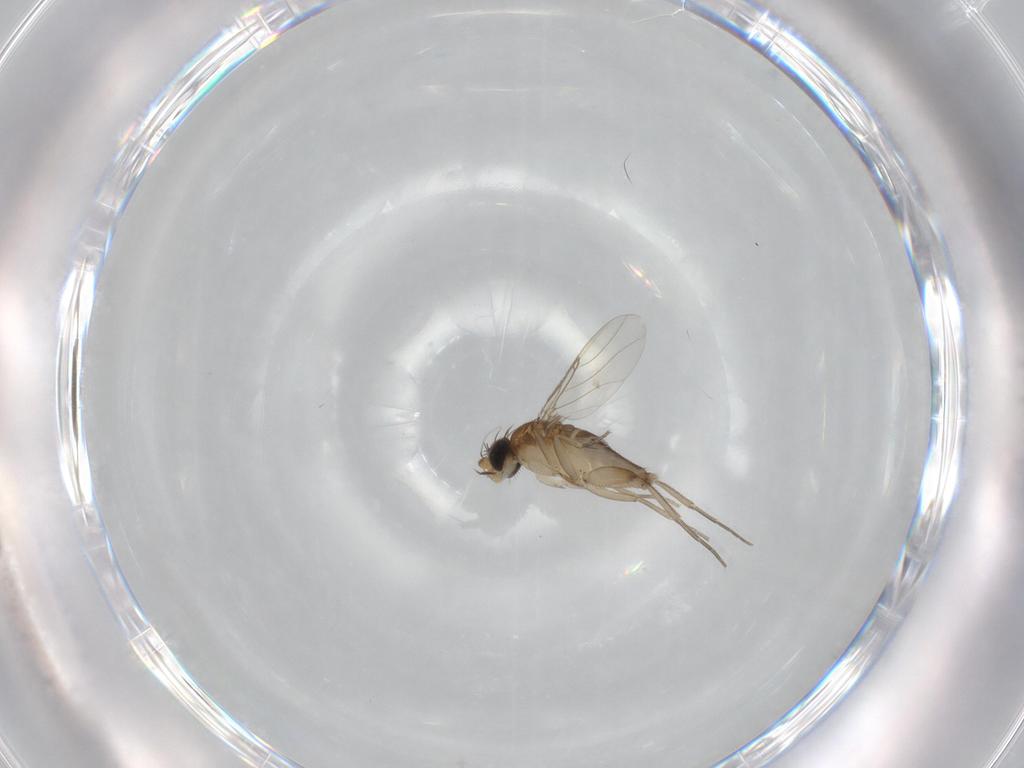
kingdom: Animalia
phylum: Arthropoda
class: Insecta
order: Diptera
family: Phoridae
